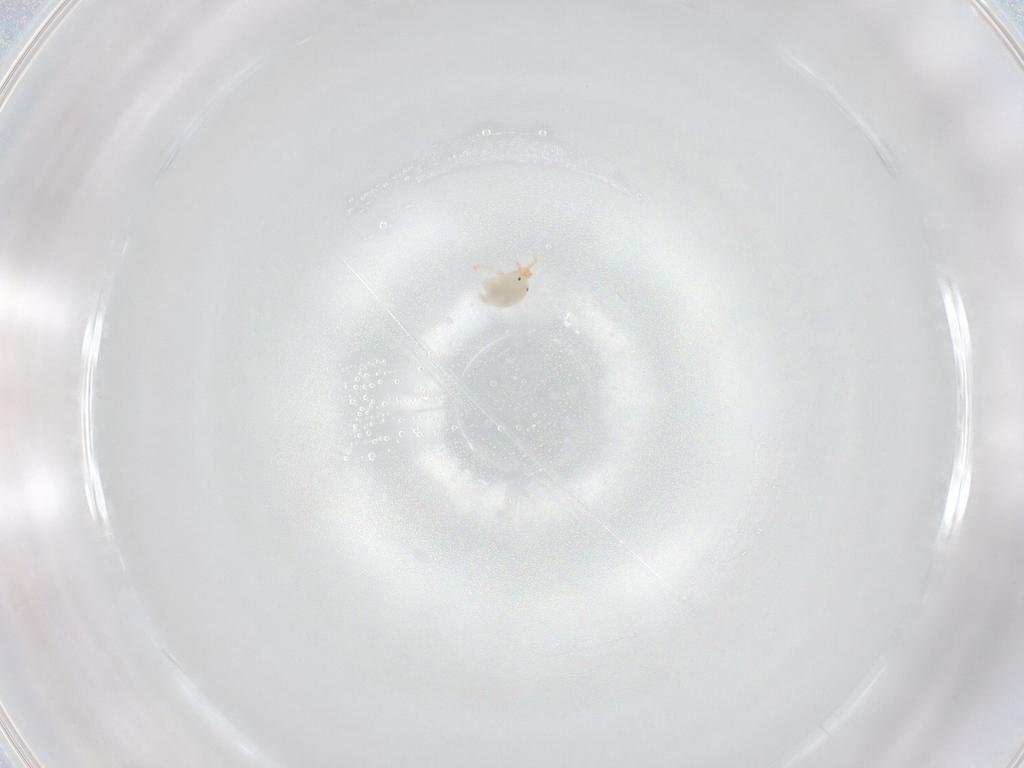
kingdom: Animalia
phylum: Arthropoda
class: Arachnida
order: Trombidiformes
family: Sperchontidae
